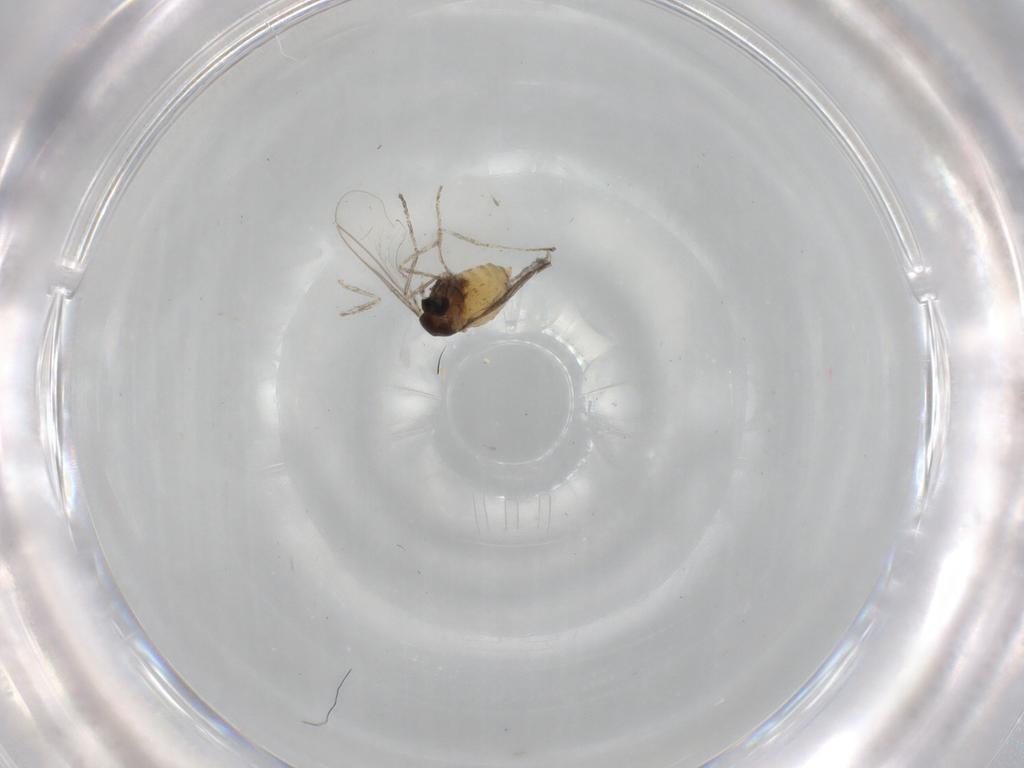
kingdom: Animalia
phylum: Arthropoda
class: Insecta
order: Diptera
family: Cecidomyiidae
